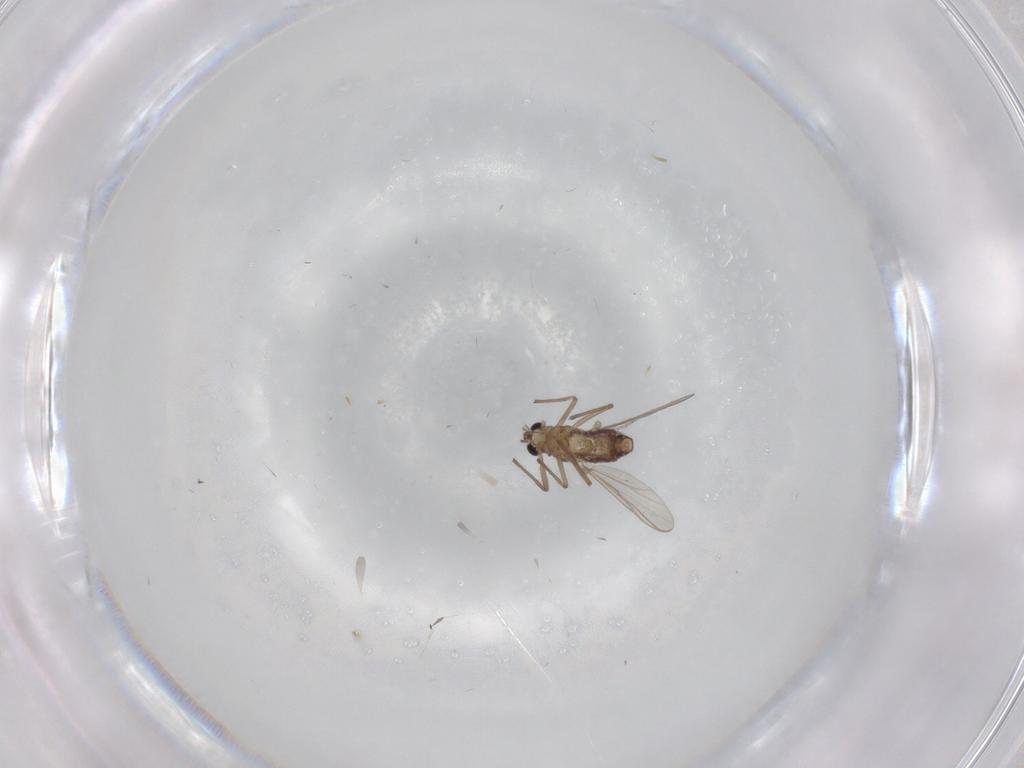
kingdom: Animalia
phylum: Arthropoda
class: Insecta
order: Diptera
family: Chironomidae
